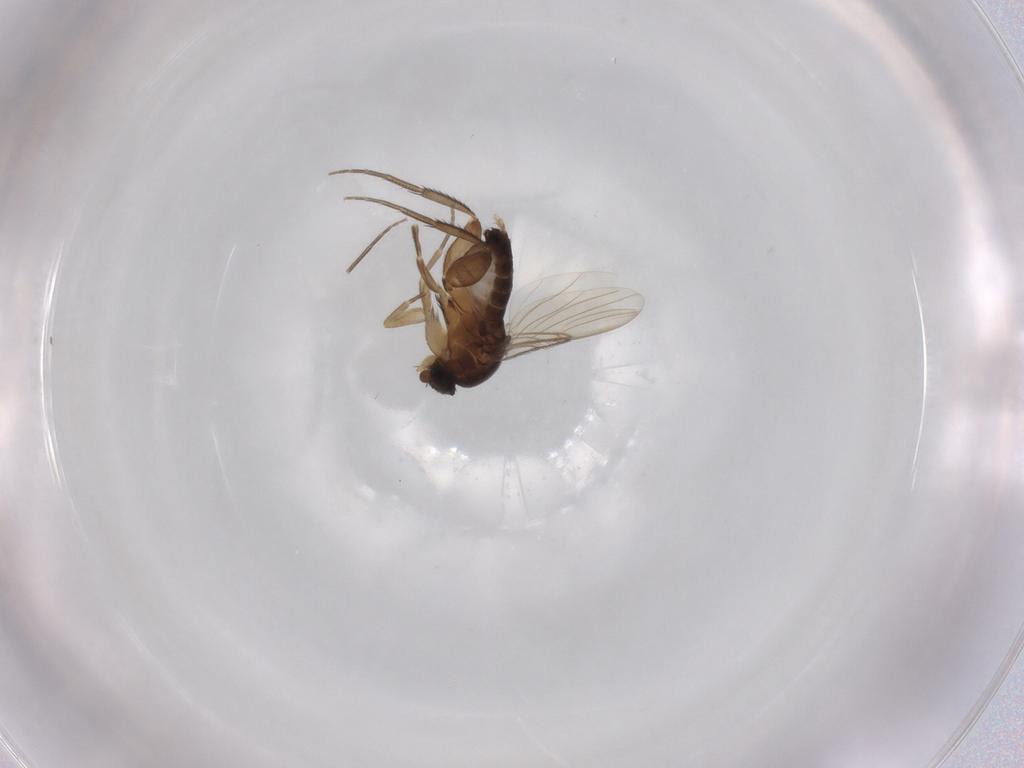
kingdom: Animalia
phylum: Arthropoda
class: Insecta
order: Diptera
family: Phoridae
